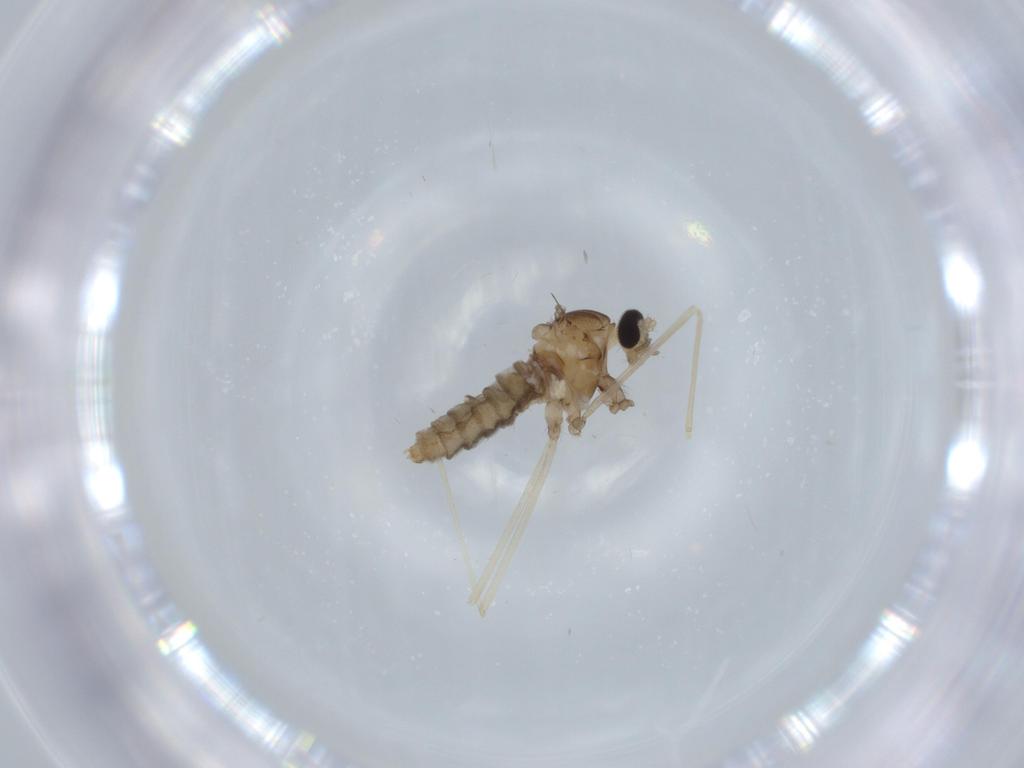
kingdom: Animalia
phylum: Arthropoda
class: Insecta
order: Diptera
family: Cecidomyiidae
